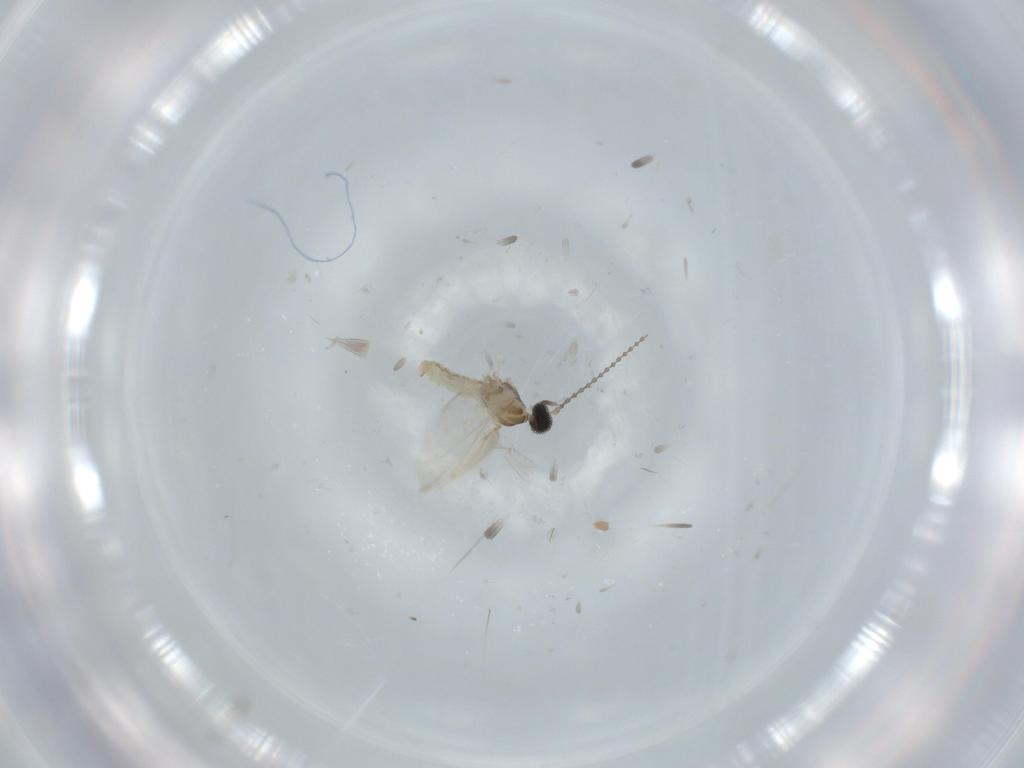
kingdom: Animalia
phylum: Arthropoda
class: Insecta
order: Diptera
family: Cecidomyiidae
